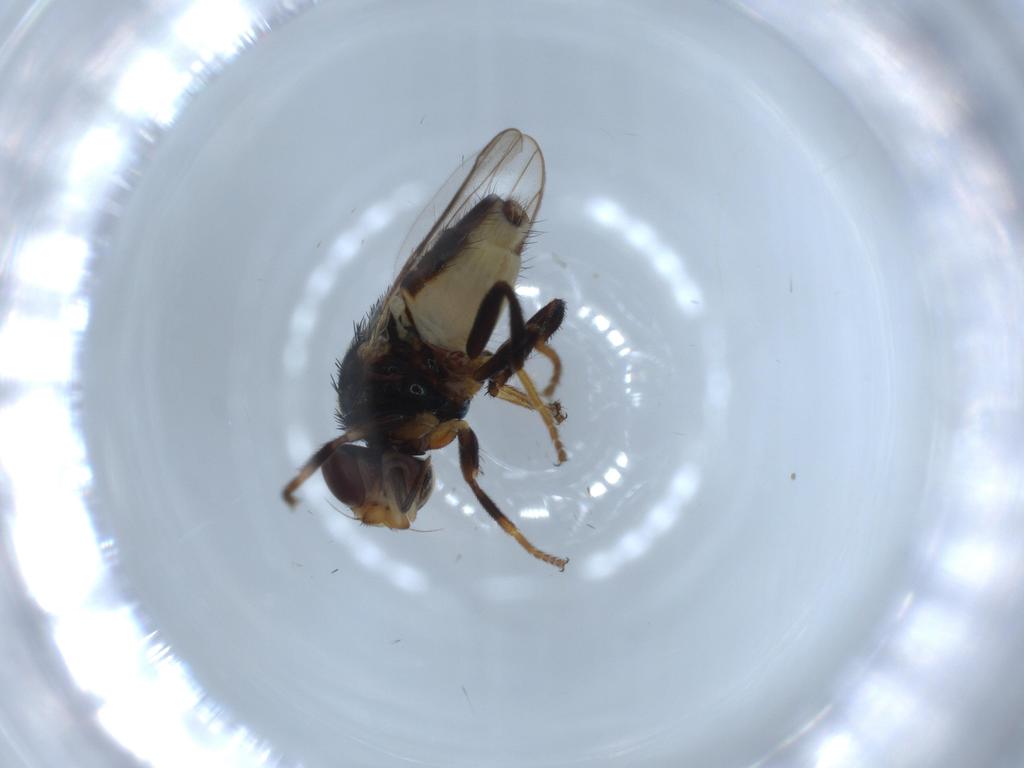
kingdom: Animalia
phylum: Arthropoda
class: Insecta
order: Diptera
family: Chloropidae
